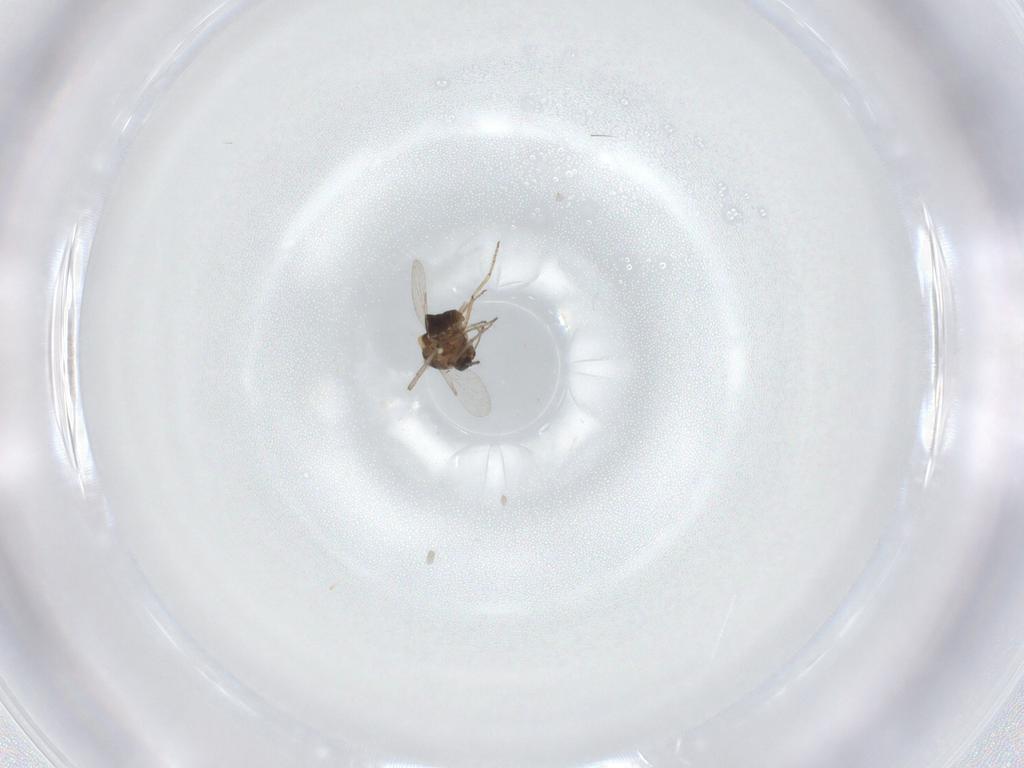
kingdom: Animalia
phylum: Arthropoda
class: Insecta
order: Diptera
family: Ceratopogonidae
